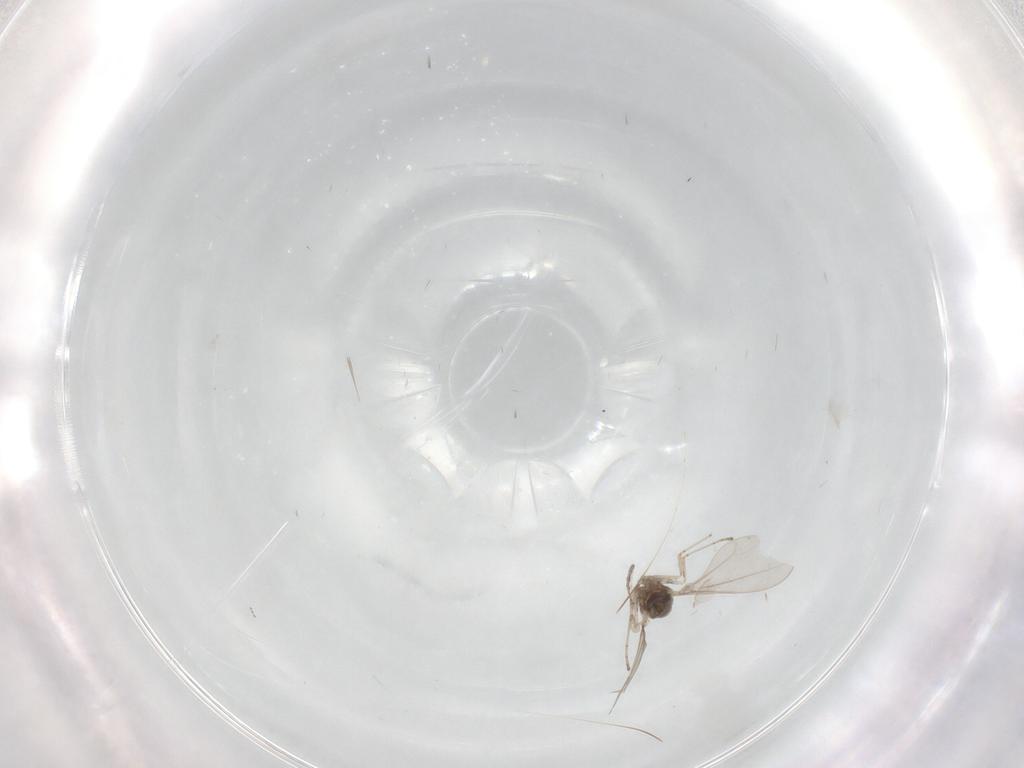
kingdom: Animalia
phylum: Arthropoda
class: Insecta
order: Diptera
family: Cecidomyiidae
